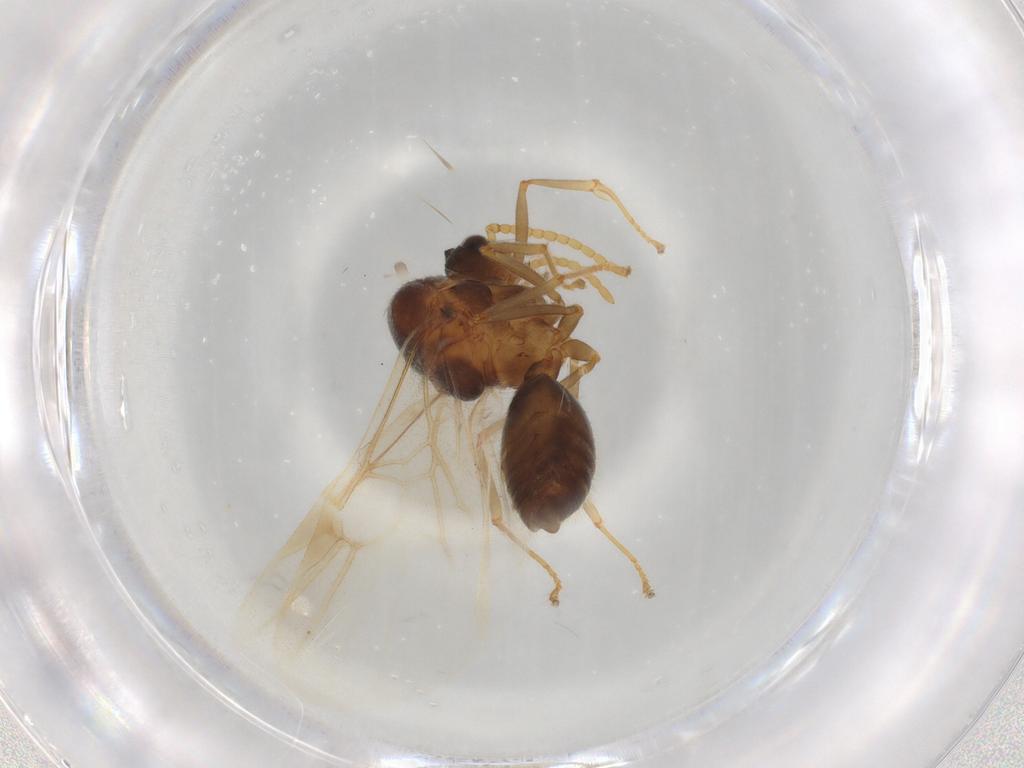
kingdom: Animalia
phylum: Arthropoda
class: Insecta
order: Hymenoptera
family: Formicidae
